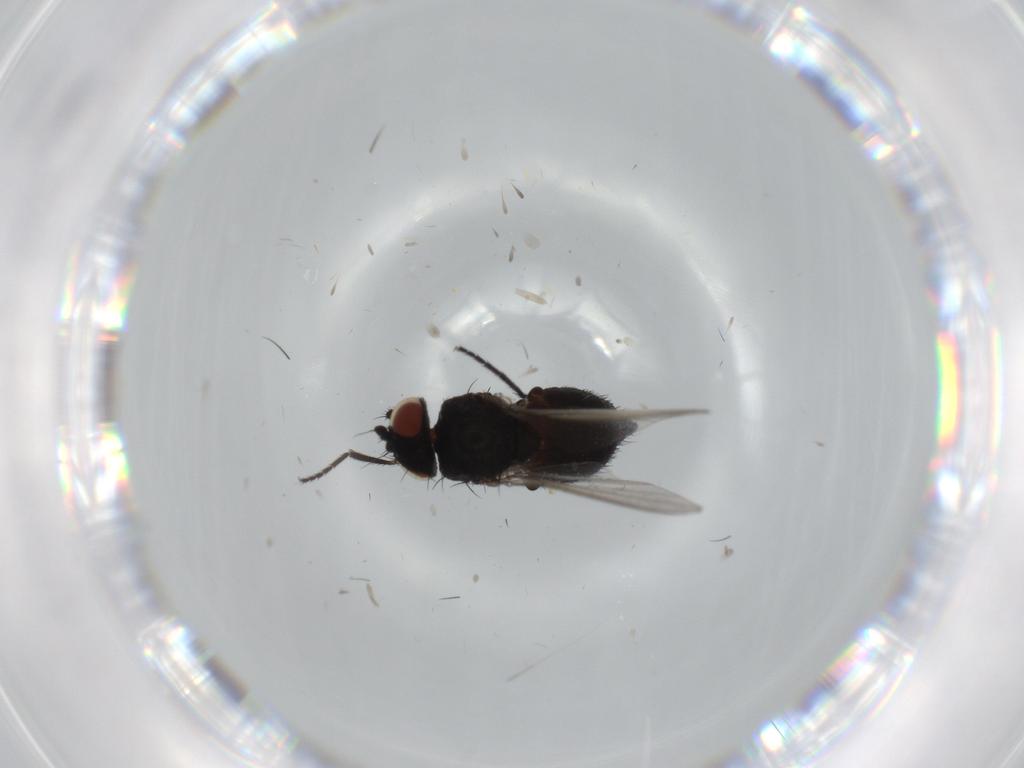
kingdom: Animalia
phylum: Arthropoda
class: Insecta
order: Diptera
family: Milichiidae
